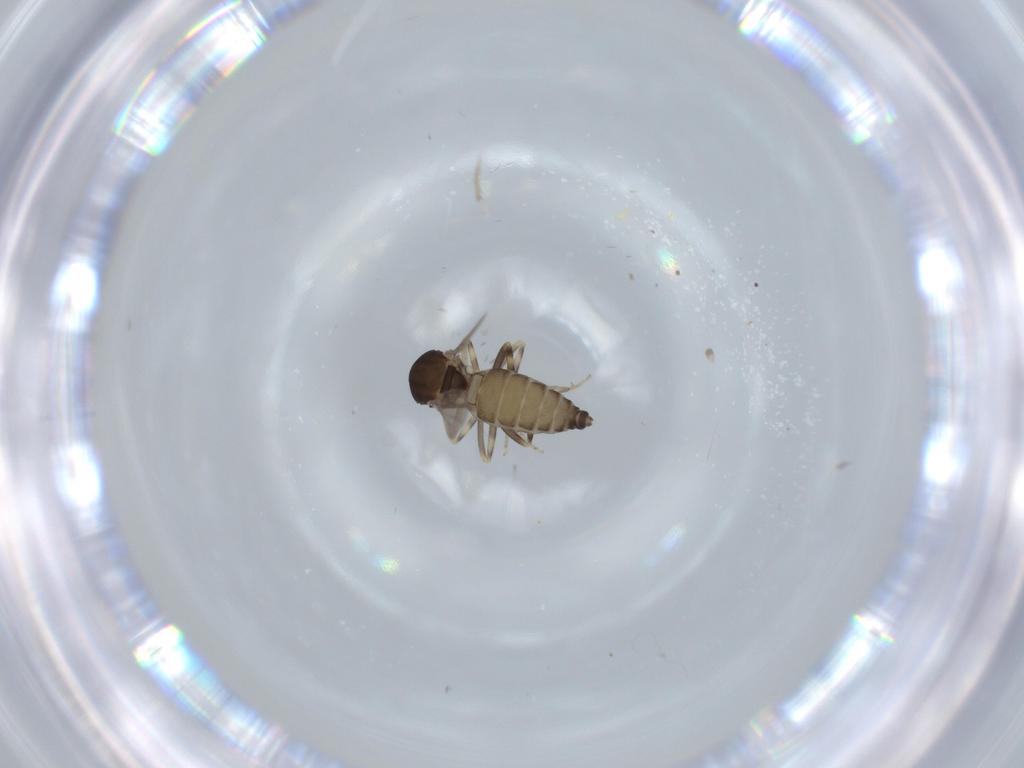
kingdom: Animalia
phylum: Arthropoda
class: Insecta
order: Diptera
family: Ceratopogonidae
